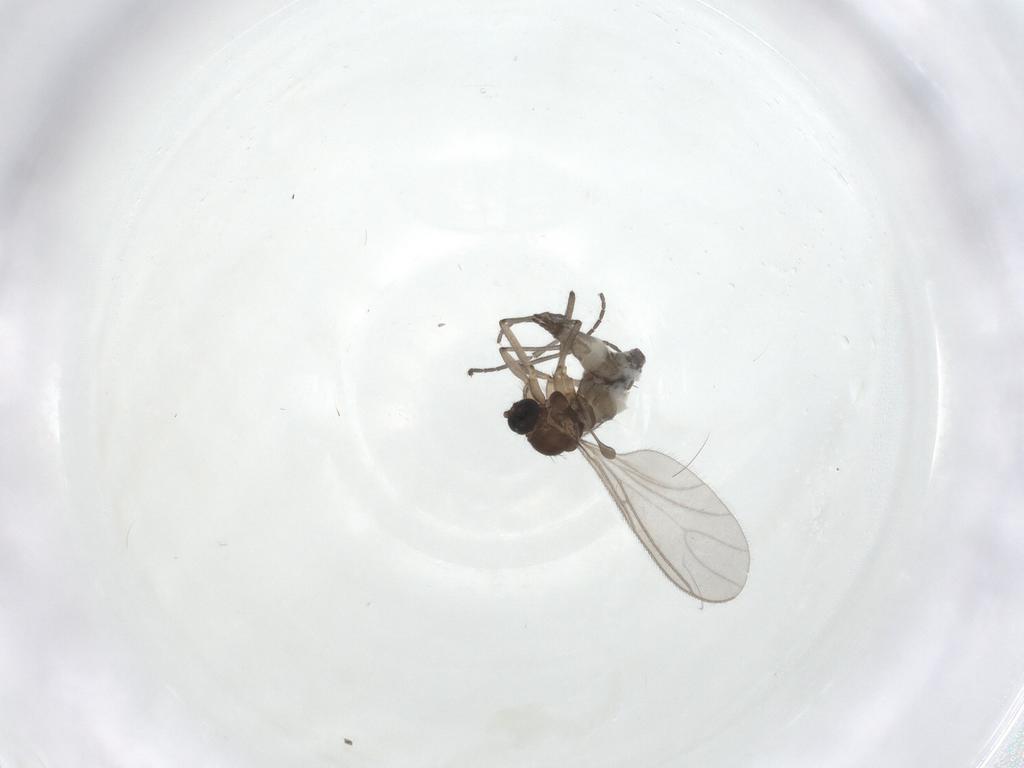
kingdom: Animalia
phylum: Arthropoda
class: Insecta
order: Diptera
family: Sciaridae
